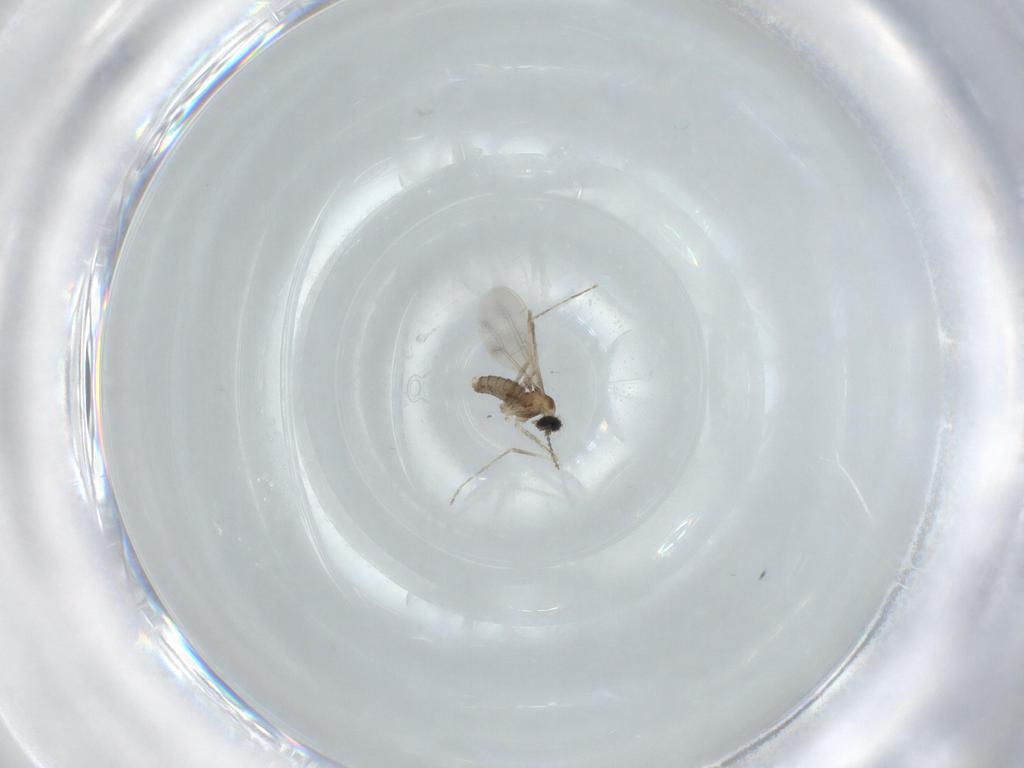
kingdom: Animalia
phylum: Arthropoda
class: Insecta
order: Diptera
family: Cecidomyiidae
